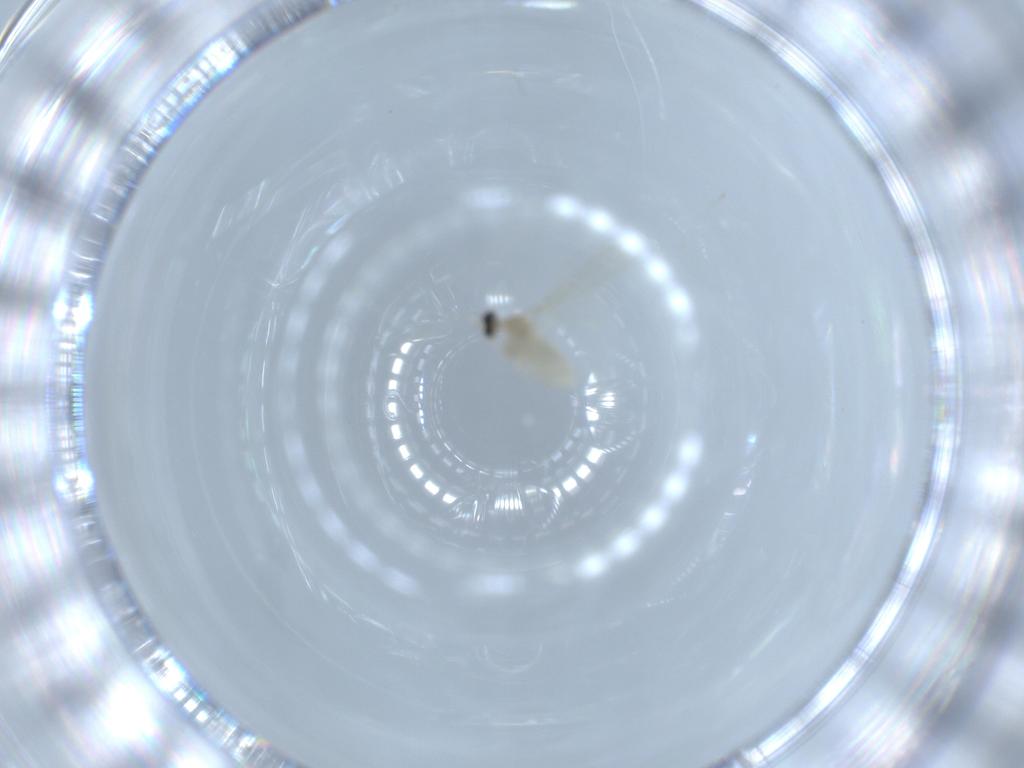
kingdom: Animalia
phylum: Arthropoda
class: Insecta
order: Diptera
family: Cecidomyiidae
